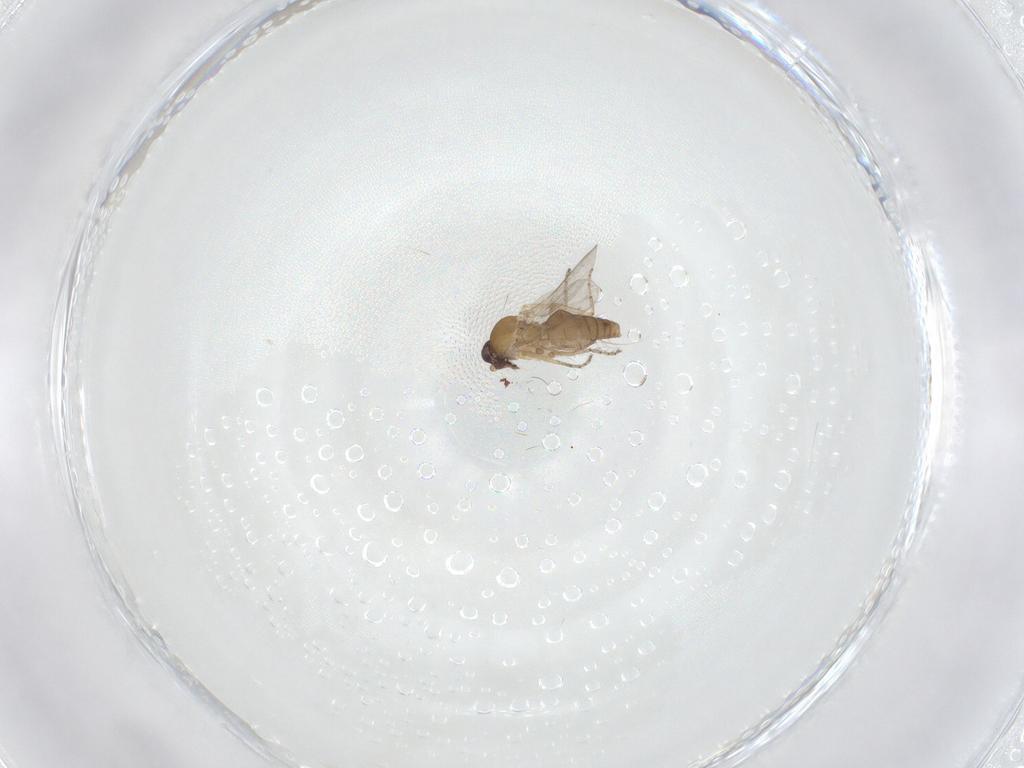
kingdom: Animalia
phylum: Arthropoda
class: Insecta
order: Diptera
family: Ceratopogonidae
